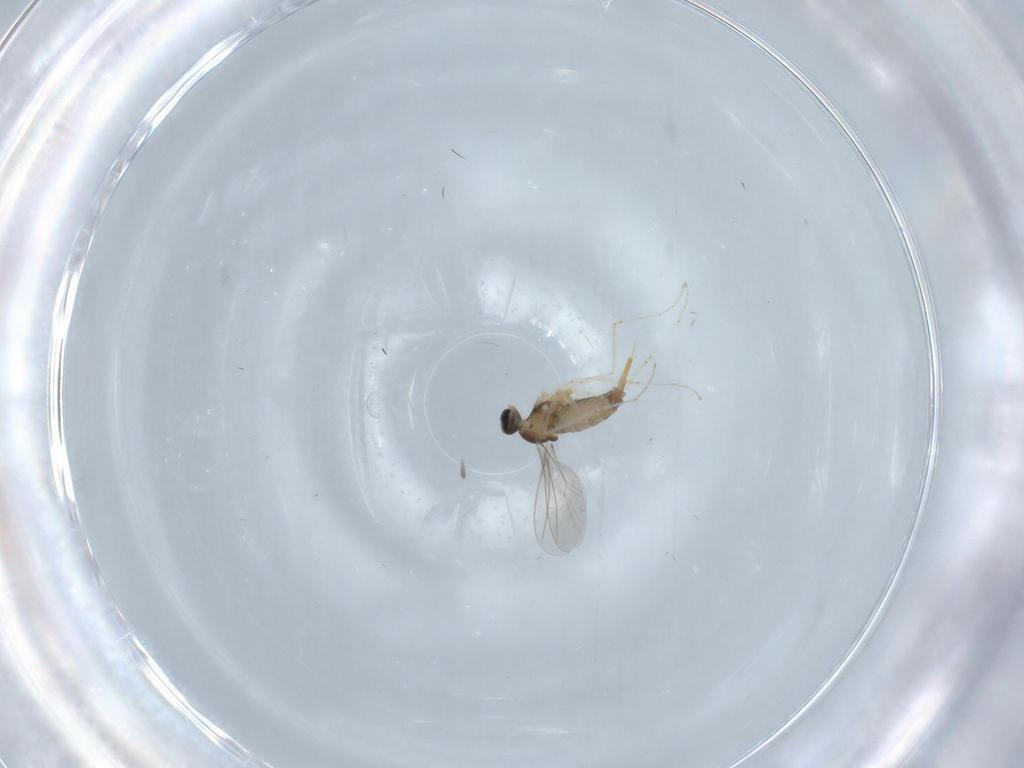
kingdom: Animalia
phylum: Arthropoda
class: Insecta
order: Diptera
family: Cecidomyiidae
